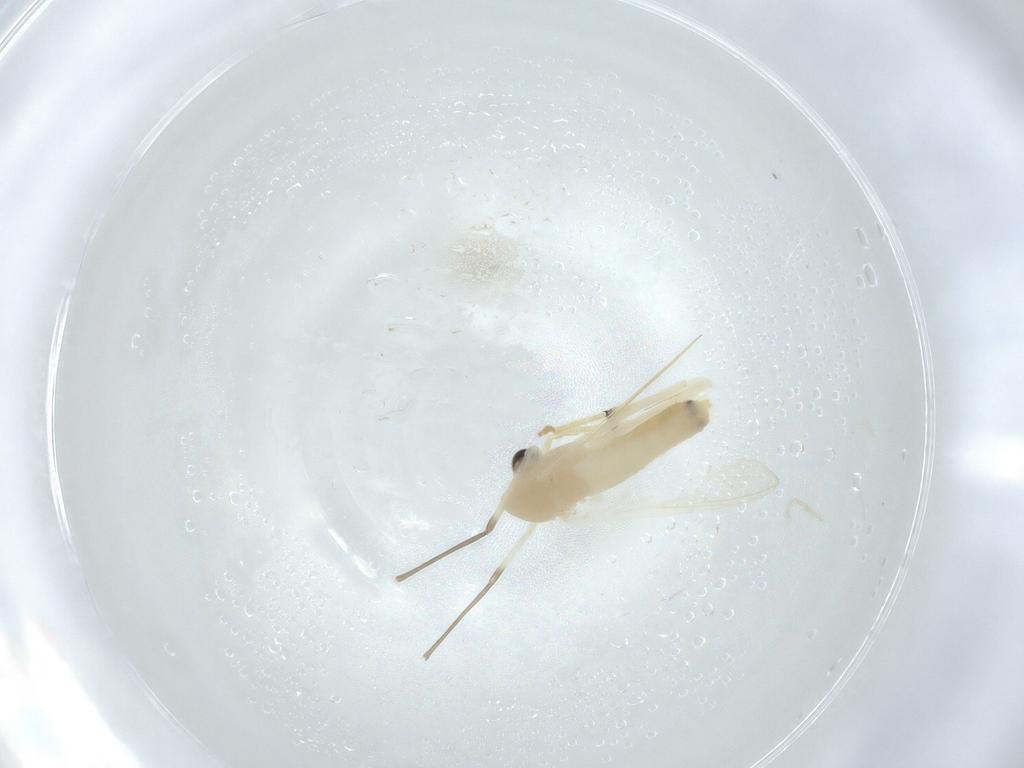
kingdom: Animalia
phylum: Arthropoda
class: Insecta
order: Diptera
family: Chironomidae
